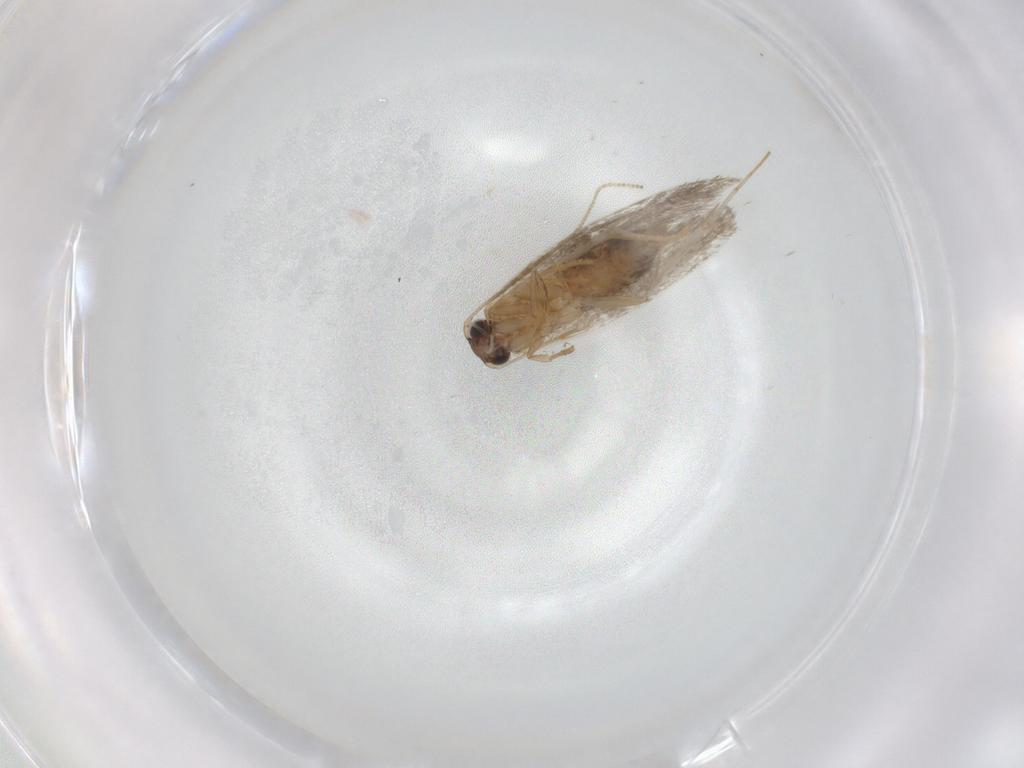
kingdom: Animalia
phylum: Arthropoda
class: Insecta
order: Lepidoptera
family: Tineidae
